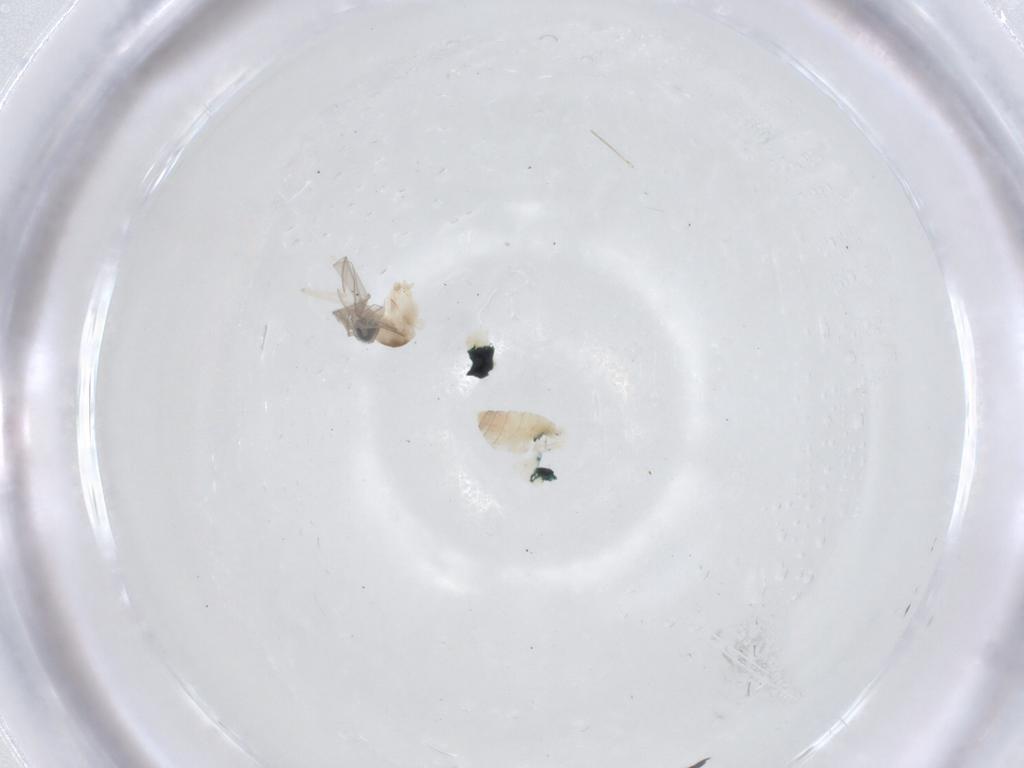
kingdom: Animalia
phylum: Arthropoda
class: Insecta
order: Diptera
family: Cecidomyiidae
